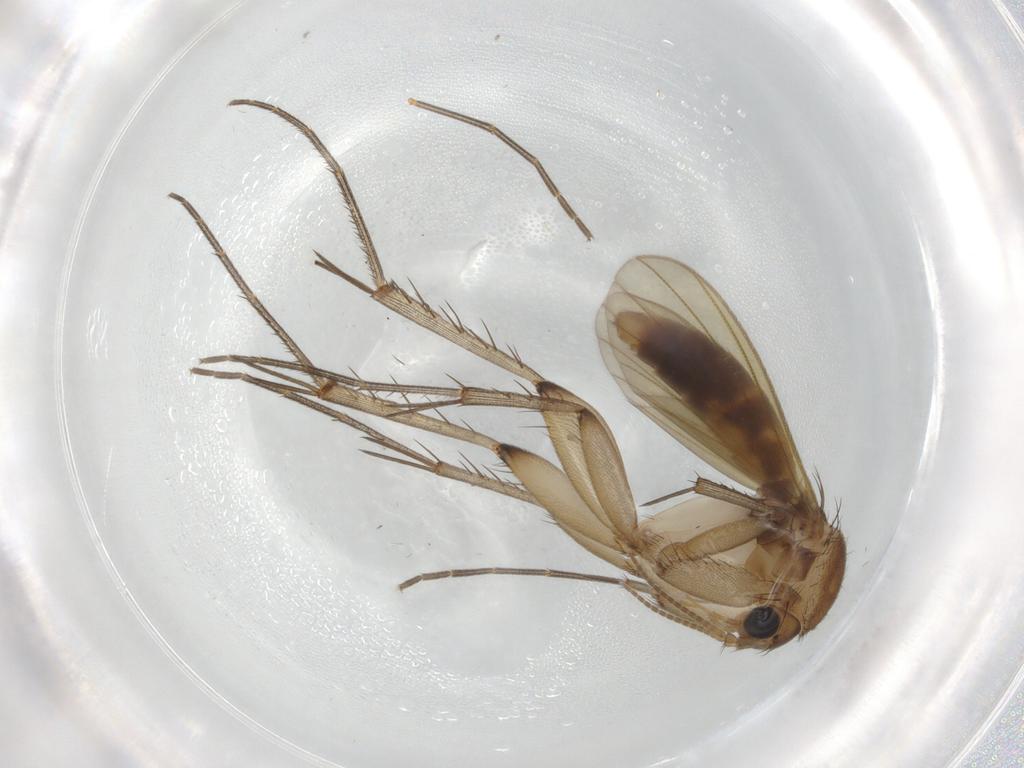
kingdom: Animalia
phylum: Arthropoda
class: Insecta
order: Diptera
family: Mycetophilidae
